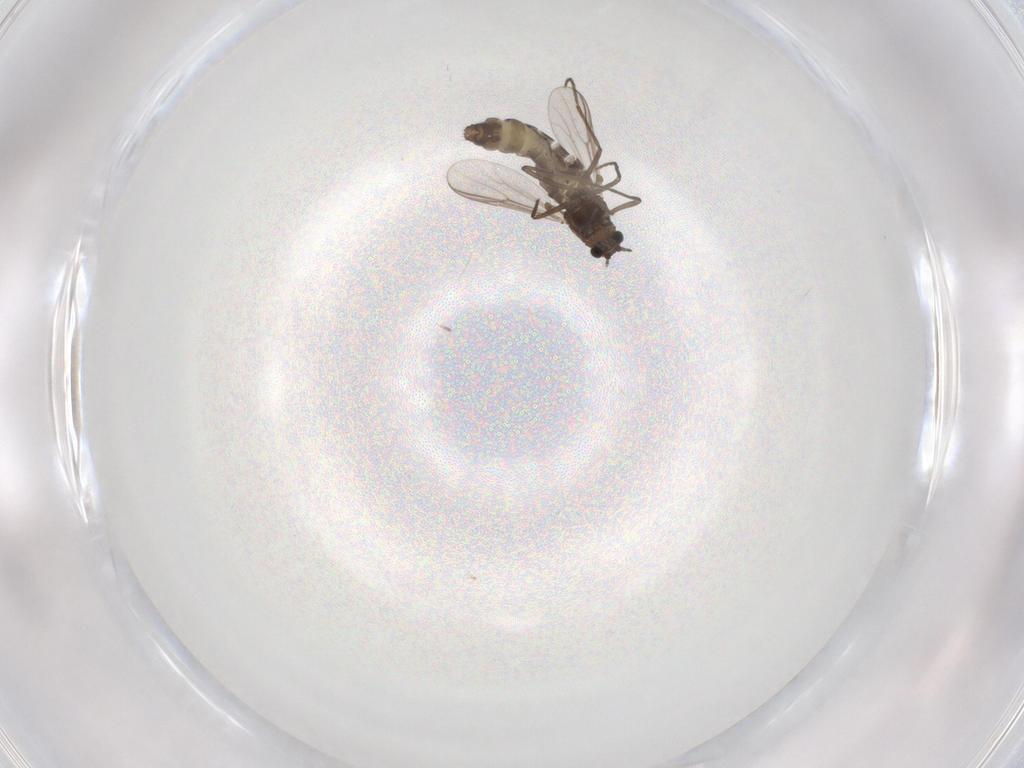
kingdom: Animalia
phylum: Arthropoda
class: Insecta
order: Diptera
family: Chironomidae
